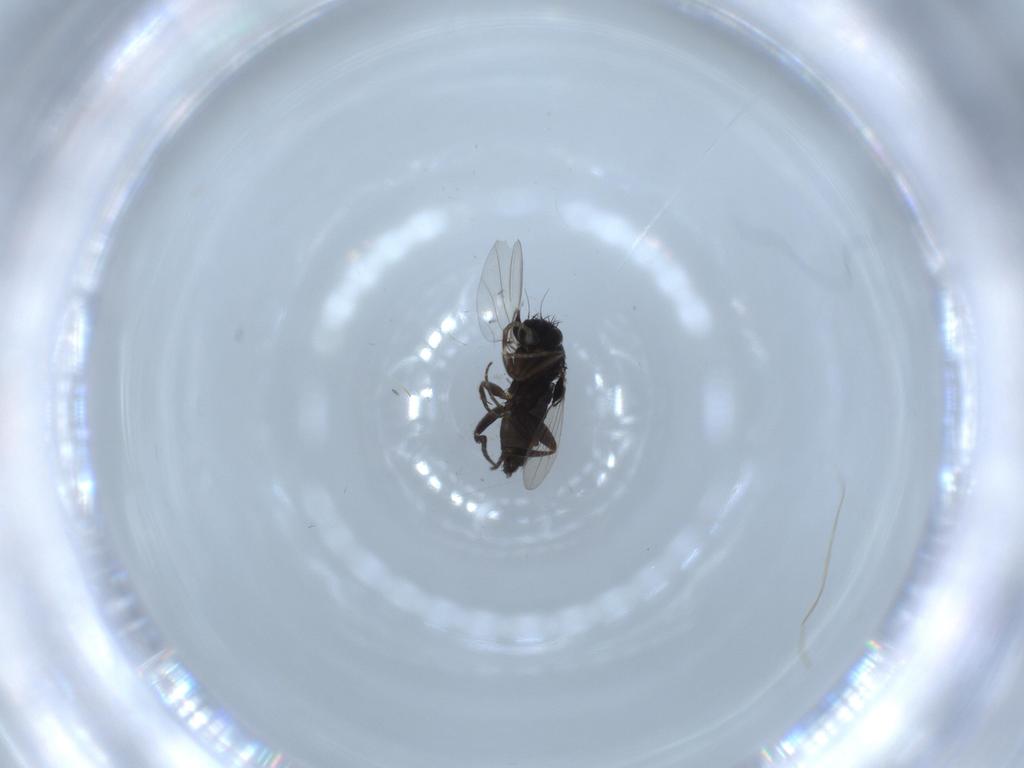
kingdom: Animalia
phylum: Arthropoda
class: Insecta
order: Diptera
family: Phoridae
